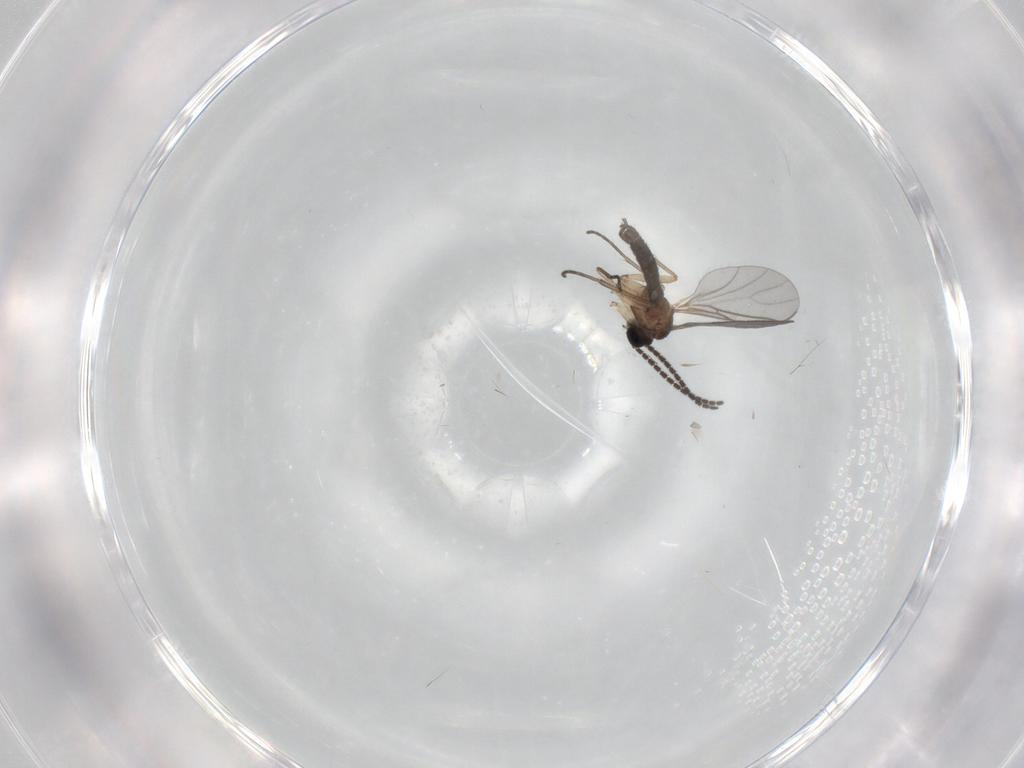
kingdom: Animalia
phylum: Arthropoda
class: Insecta
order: Diptera
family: Sciaridae
